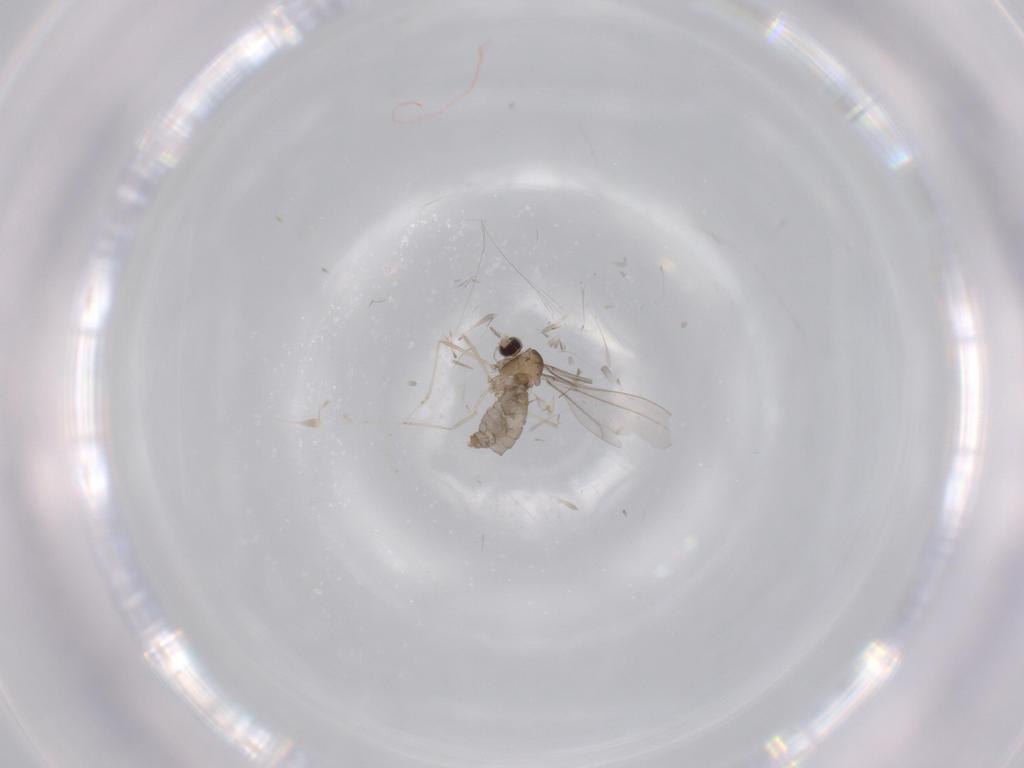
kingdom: Animalia
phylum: Arthropoda
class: Insecta
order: Diptera
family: Cecidomyiidae
